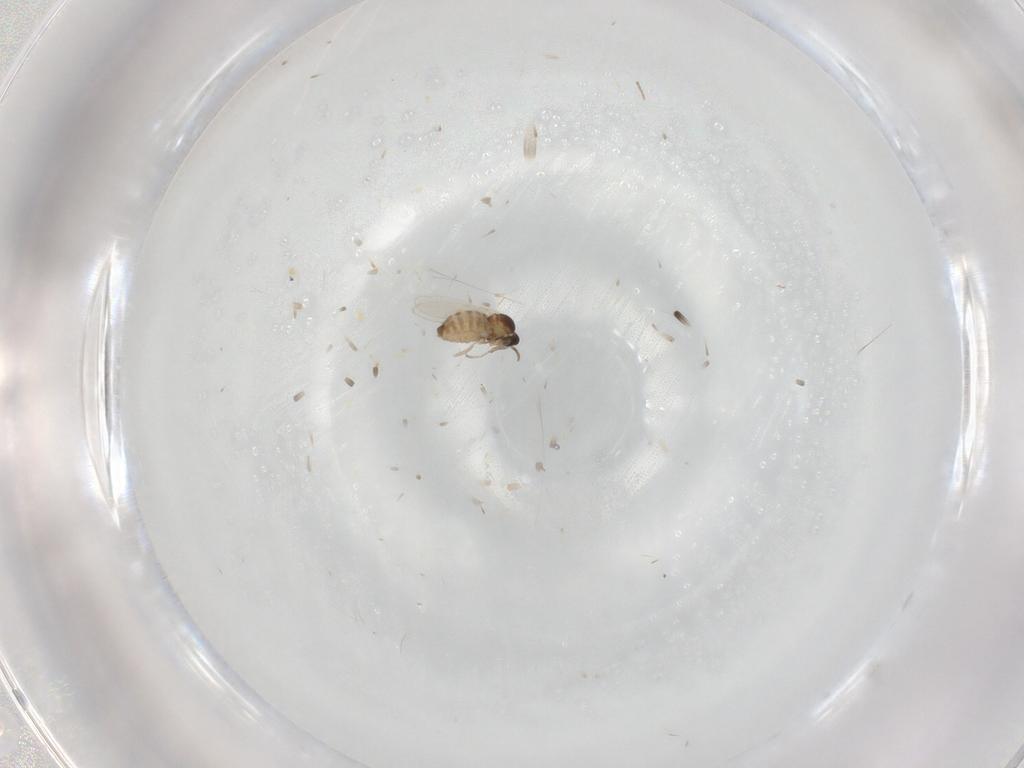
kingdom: Animalia
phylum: Arthropoda
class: Insecta
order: Diptera
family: Cecidomyiidae
